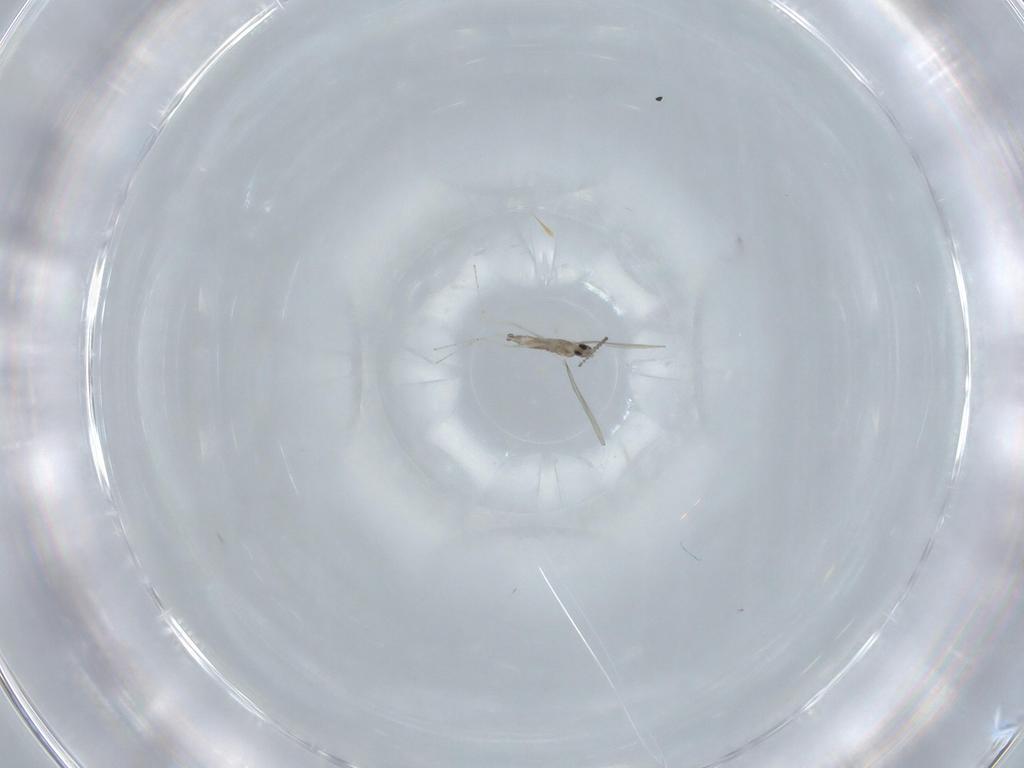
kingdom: Animalia
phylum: Arthropoda
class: Insecta
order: Diptera
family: Cecidomyiidae
